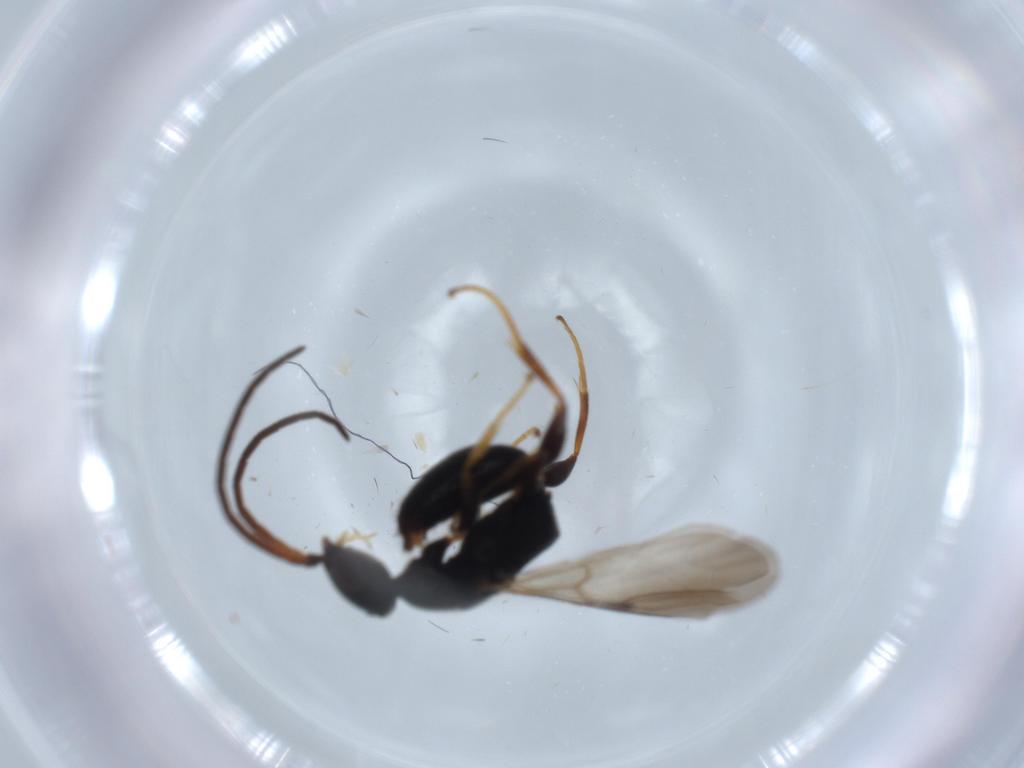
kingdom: Animalia
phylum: Arthropoda
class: Insecta
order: Hymenoptera
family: Bethylidae
